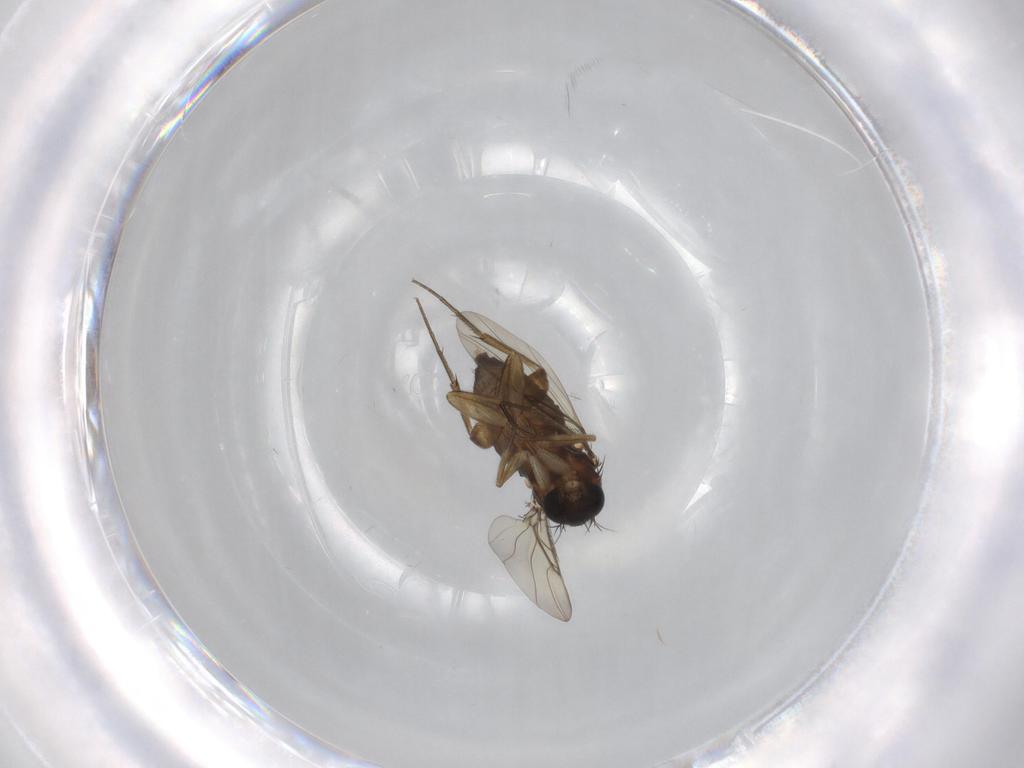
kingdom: Animalia
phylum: Arthropoda
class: Insecta
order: Diptera
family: Phoridae
